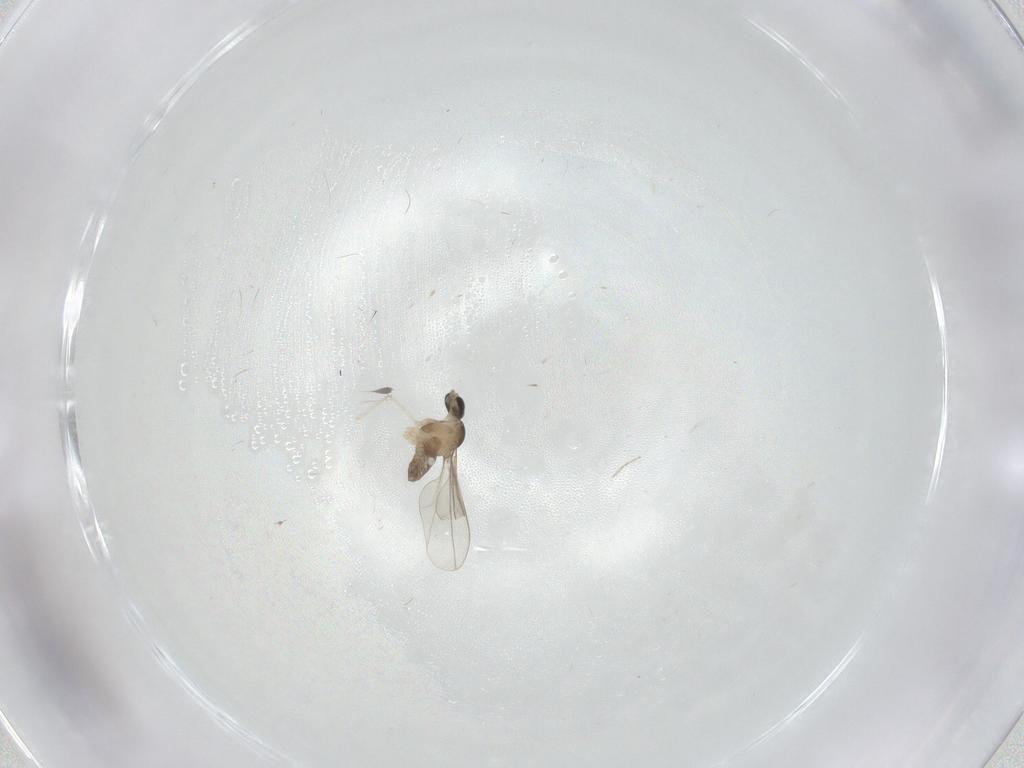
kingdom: Animalia
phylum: Arthropoda
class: Insecta
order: Diptera
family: Cecidomyiidae
